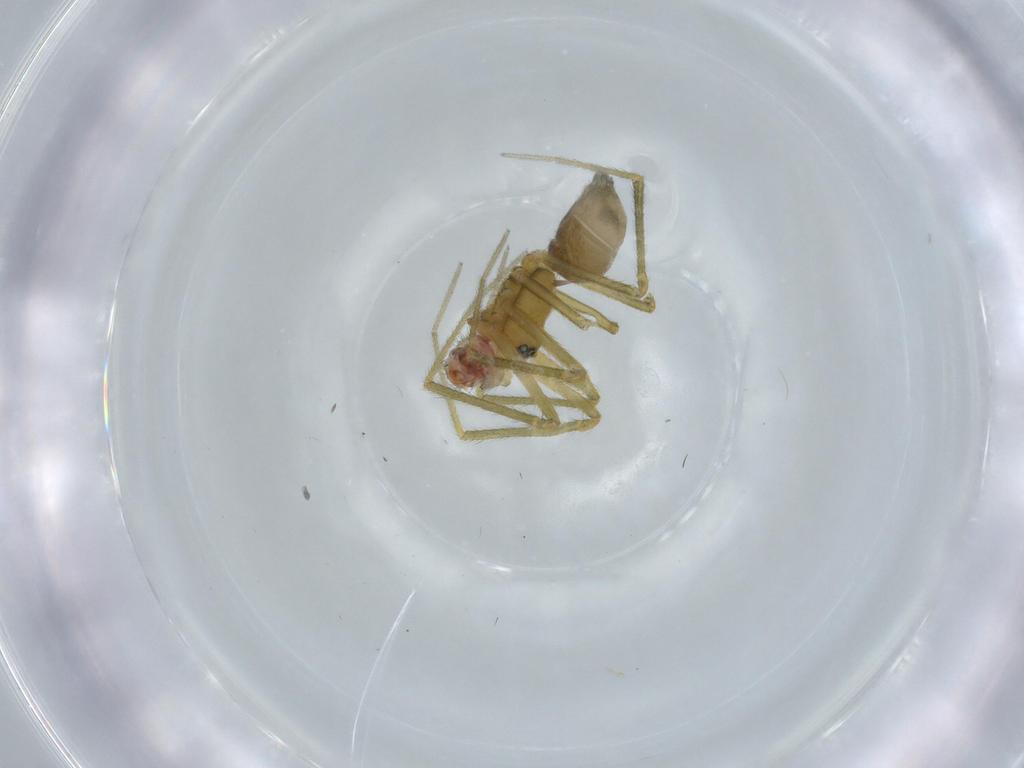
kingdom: Animalia
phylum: Arthropoda
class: Arachnida
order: Araneae
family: Linyphiidae
